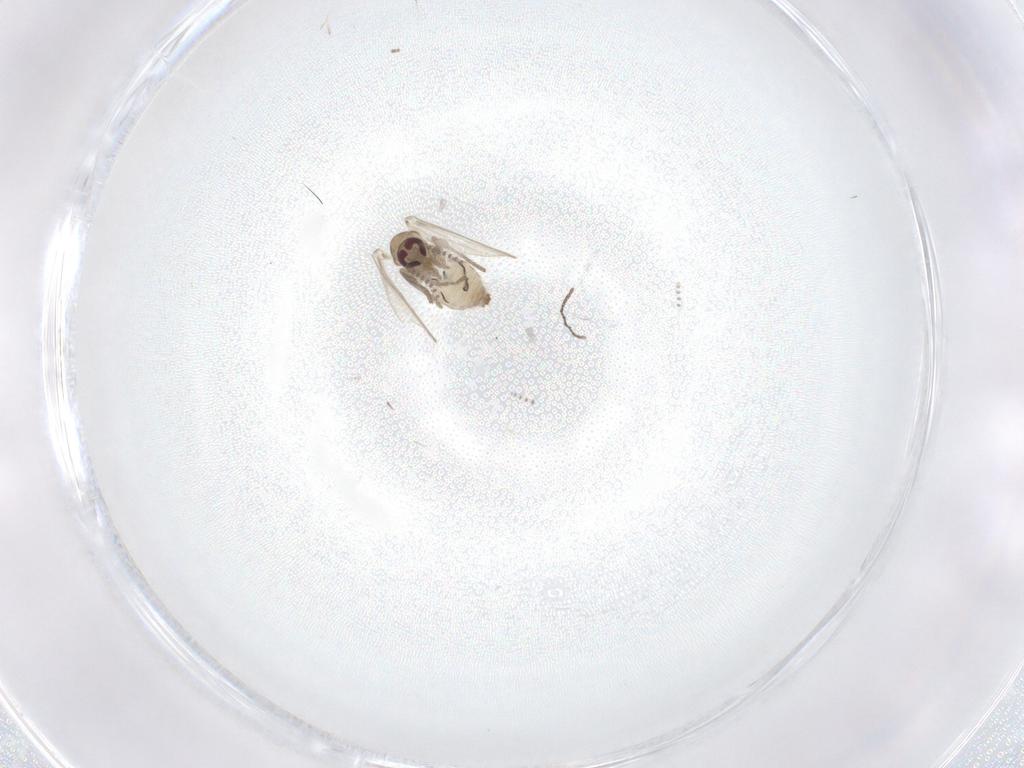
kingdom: Animalia
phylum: Arthropoda
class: Insecta
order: Diptera
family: Psychodidae
